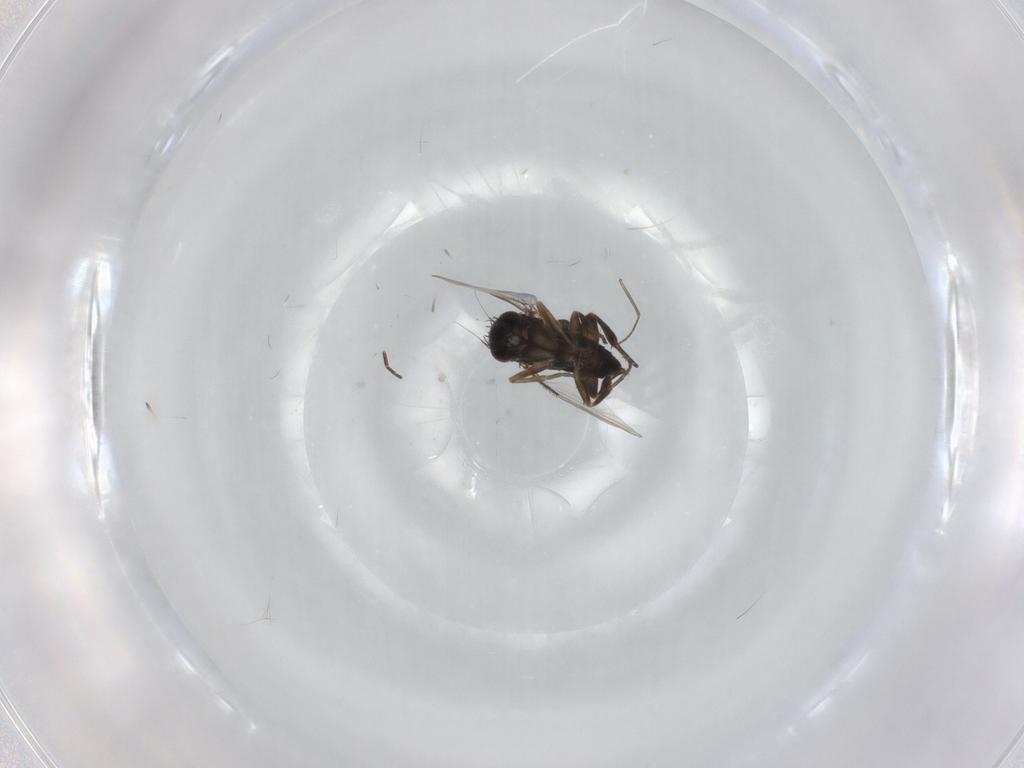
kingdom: Animalia
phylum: Arthropoda
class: Insecta
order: Diptera
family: Phoridae
